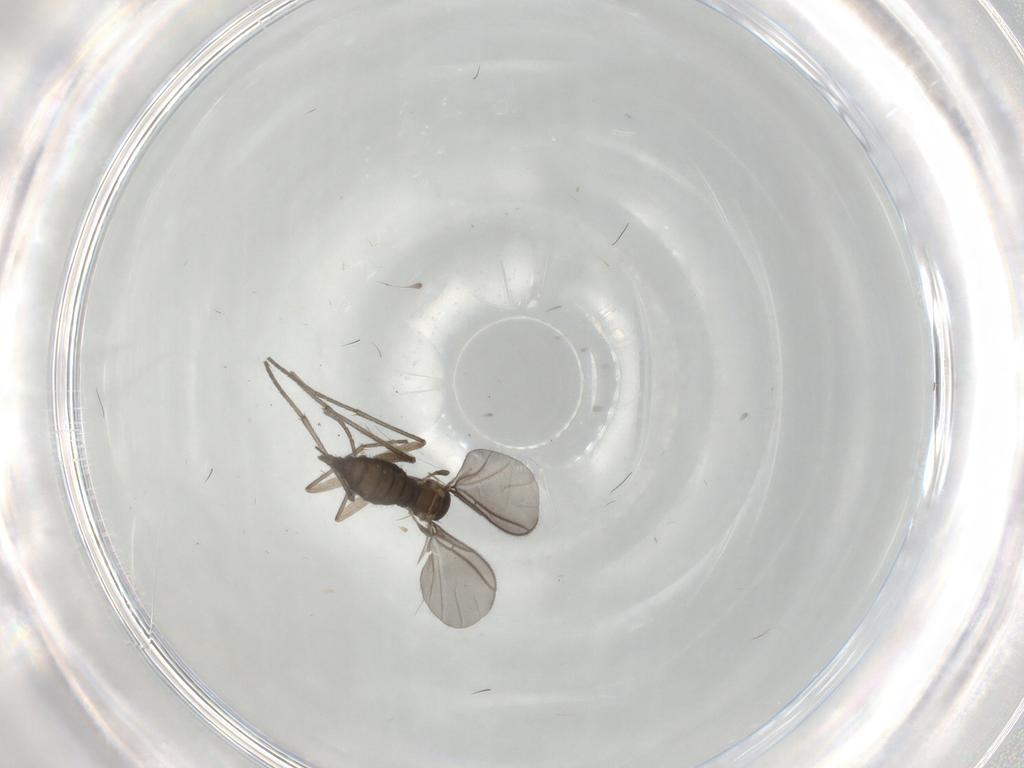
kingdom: Animalia
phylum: Arthropoda
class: Insecta
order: Diptera
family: Sciaridae
